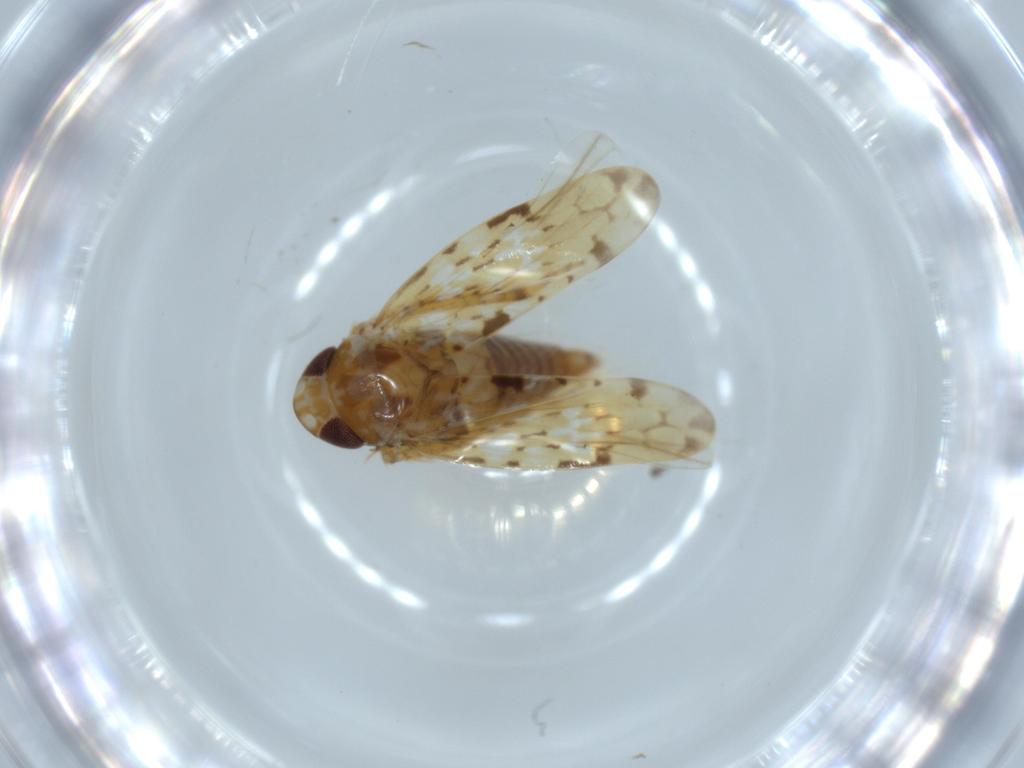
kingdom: Animalia
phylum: Arthropoda
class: Insecta
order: Hemiptera
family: Cicadellidae
